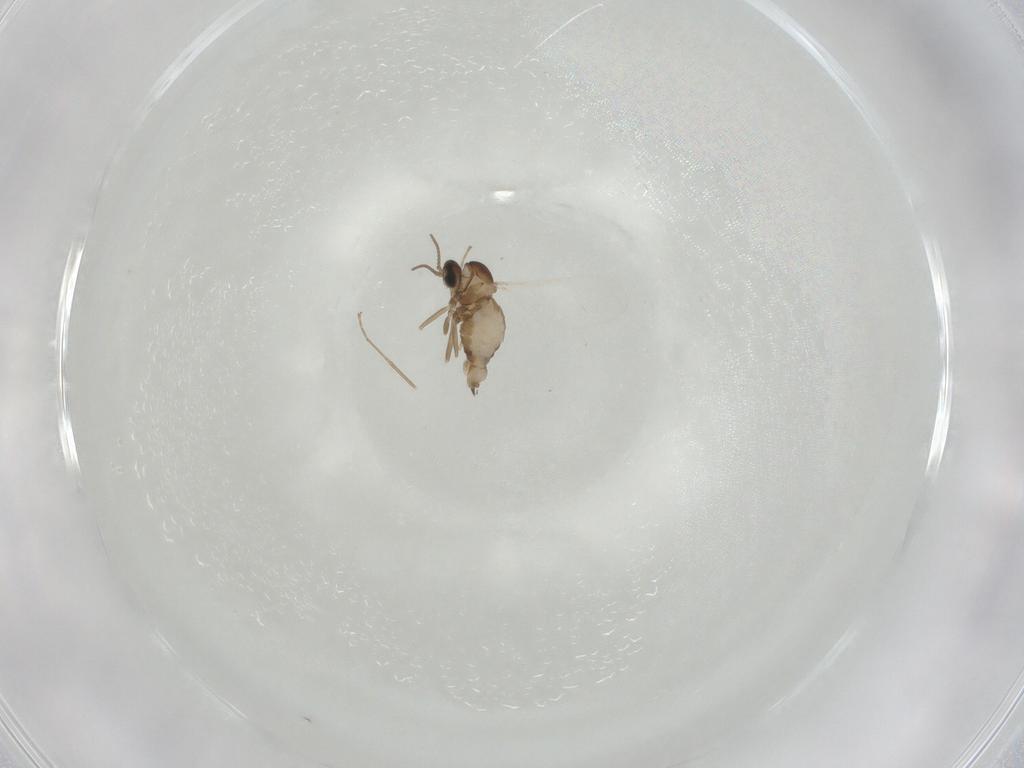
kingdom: Animalia
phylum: Arthropoda
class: Insecta
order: Diptera
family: Cecidomyiidae
